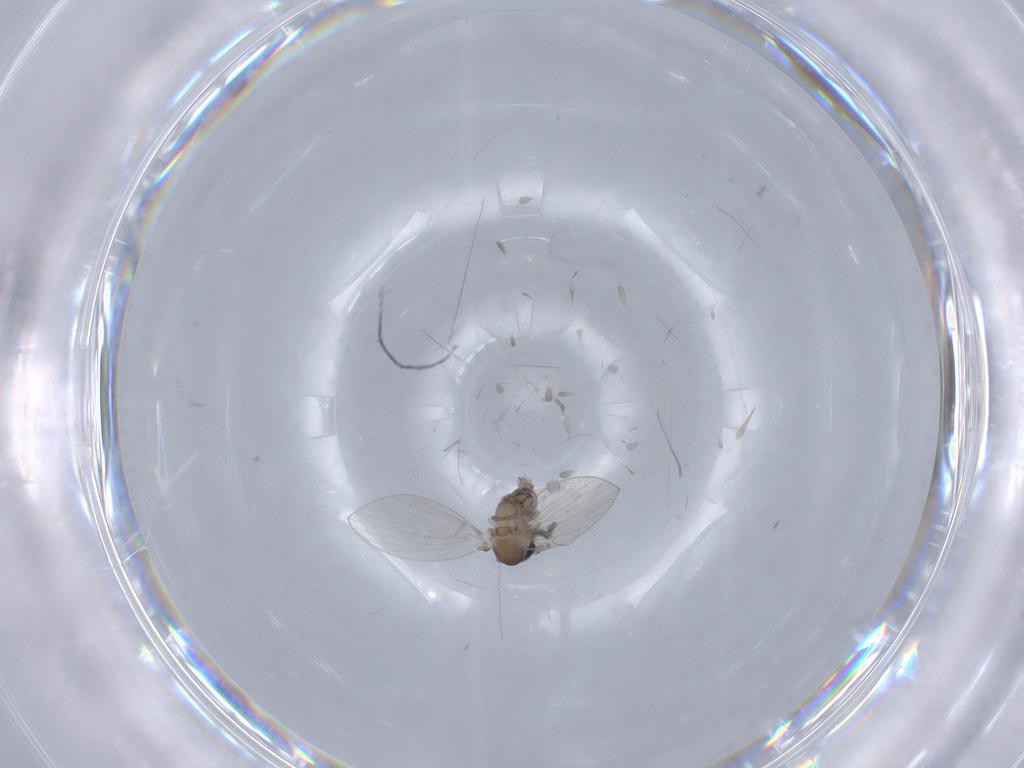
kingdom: Animalia
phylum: Arthropoda
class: Insecta
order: Diptera
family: Psychodidae
